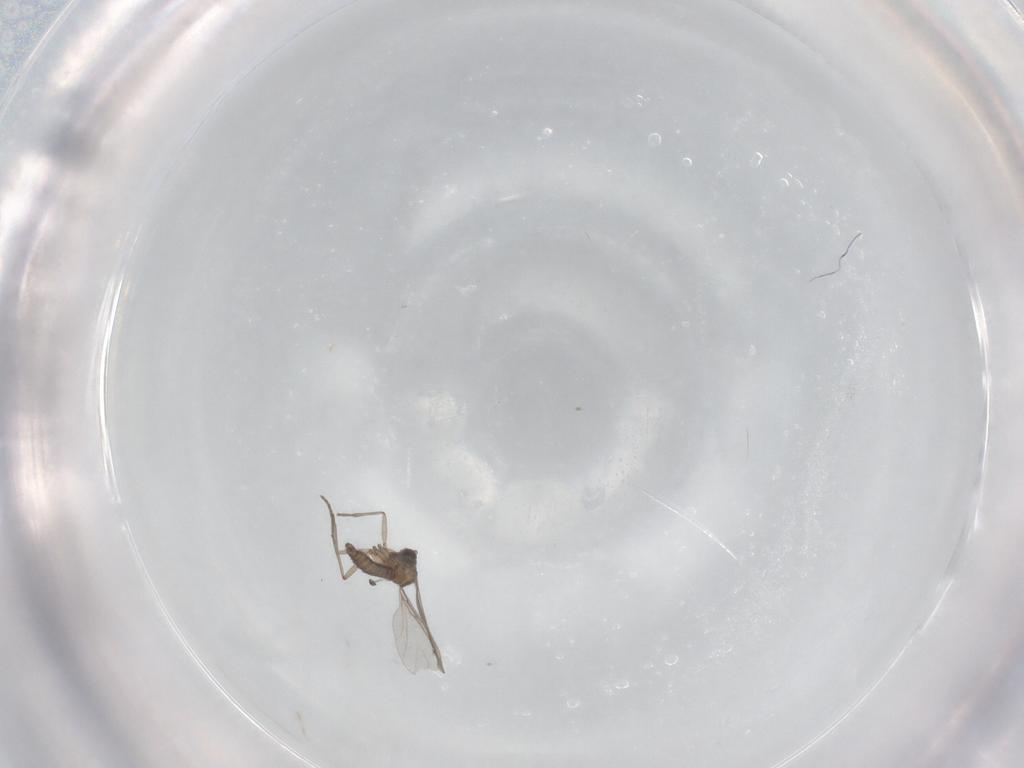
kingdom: Animalia
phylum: Arthropoda
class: Insecta
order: Diptera
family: Sciaridae
